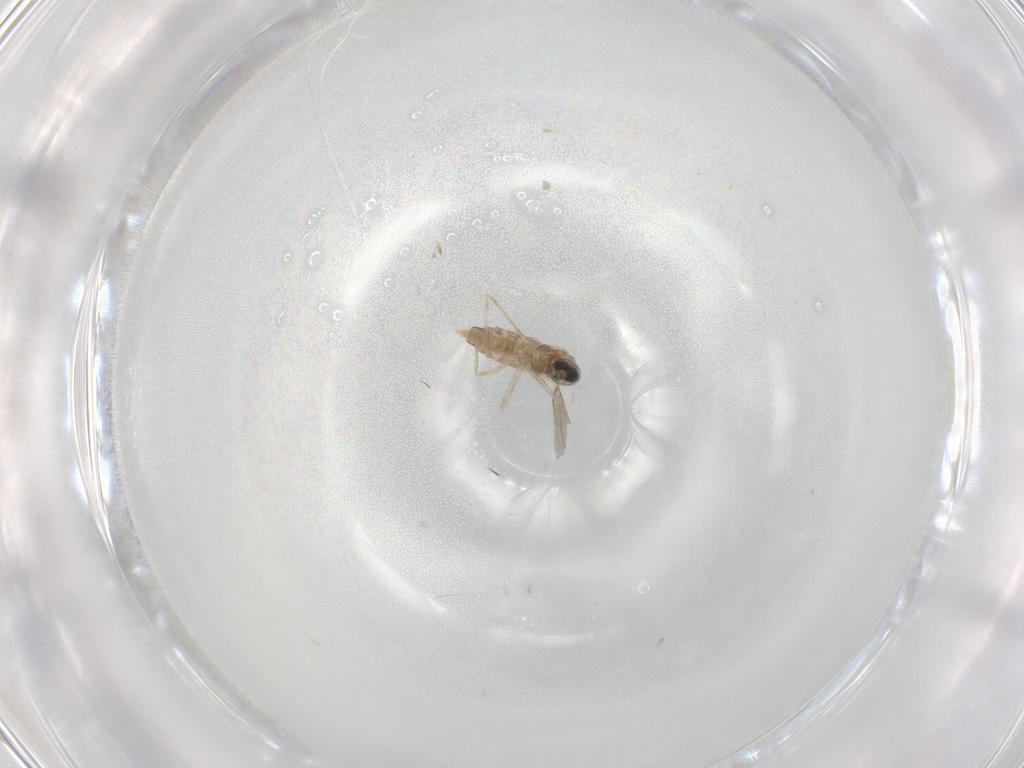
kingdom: Animalia
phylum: Arthropoda
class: Insecta
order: Diptera
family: Cecidomyiidae
